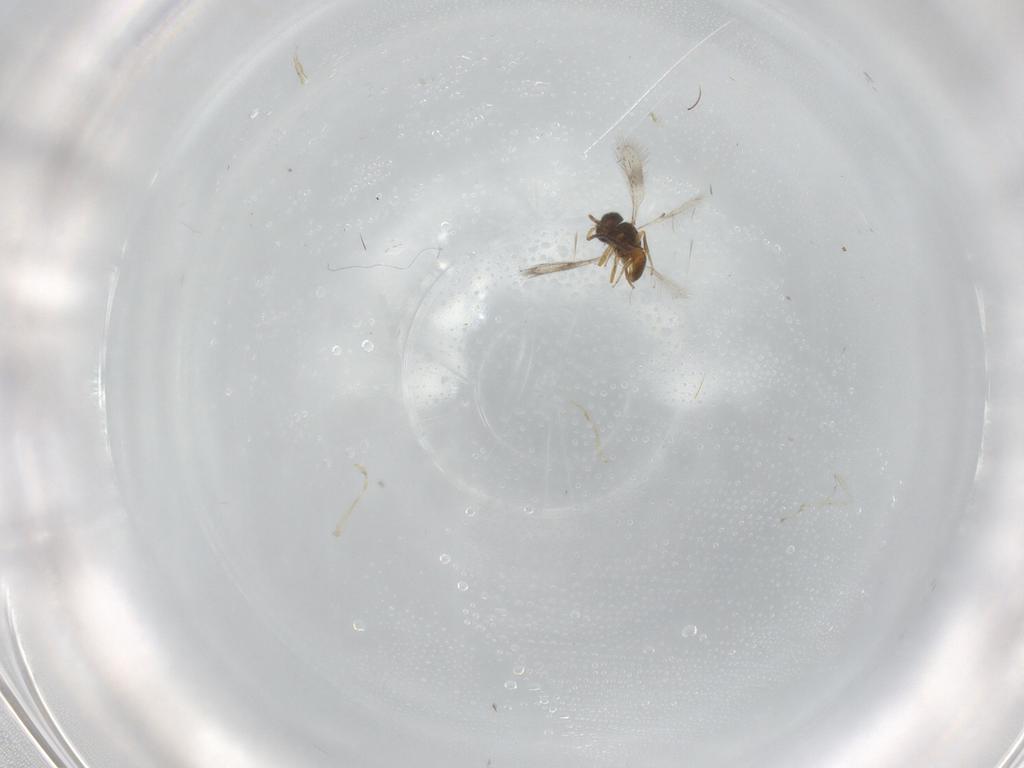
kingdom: Animalia
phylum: Arthropoda
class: Insecta
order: Hymenoptera
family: Scelionidae
